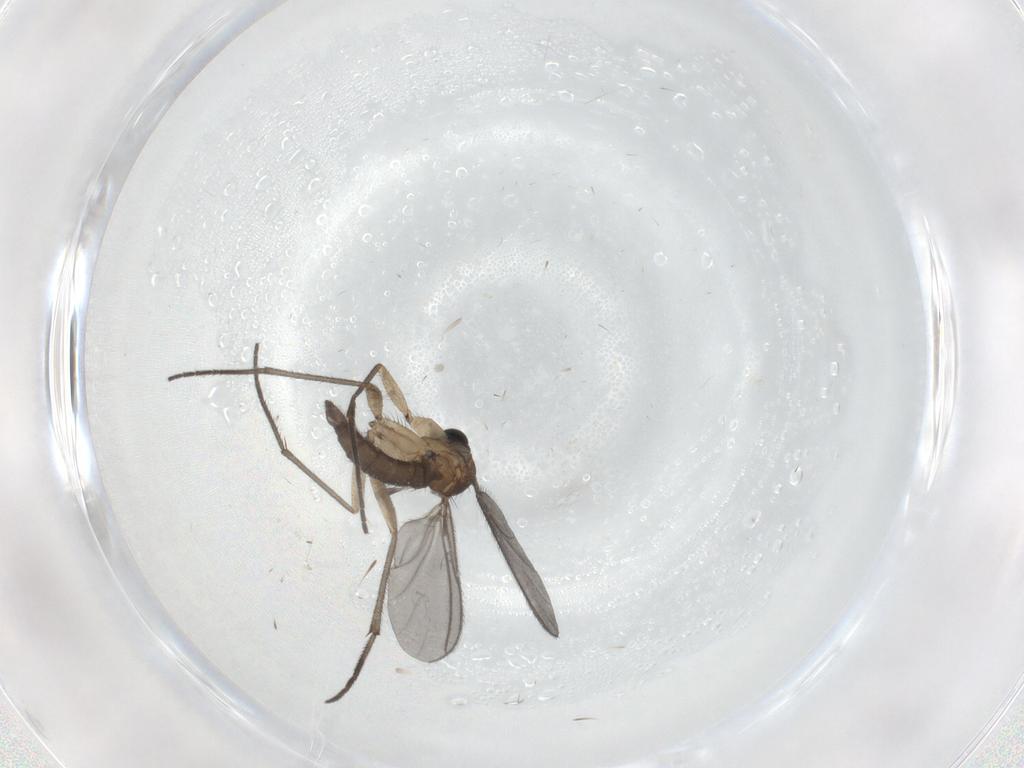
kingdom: Animalia
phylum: Arthropoda
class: Insecta
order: Diptera
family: Sciaridae
